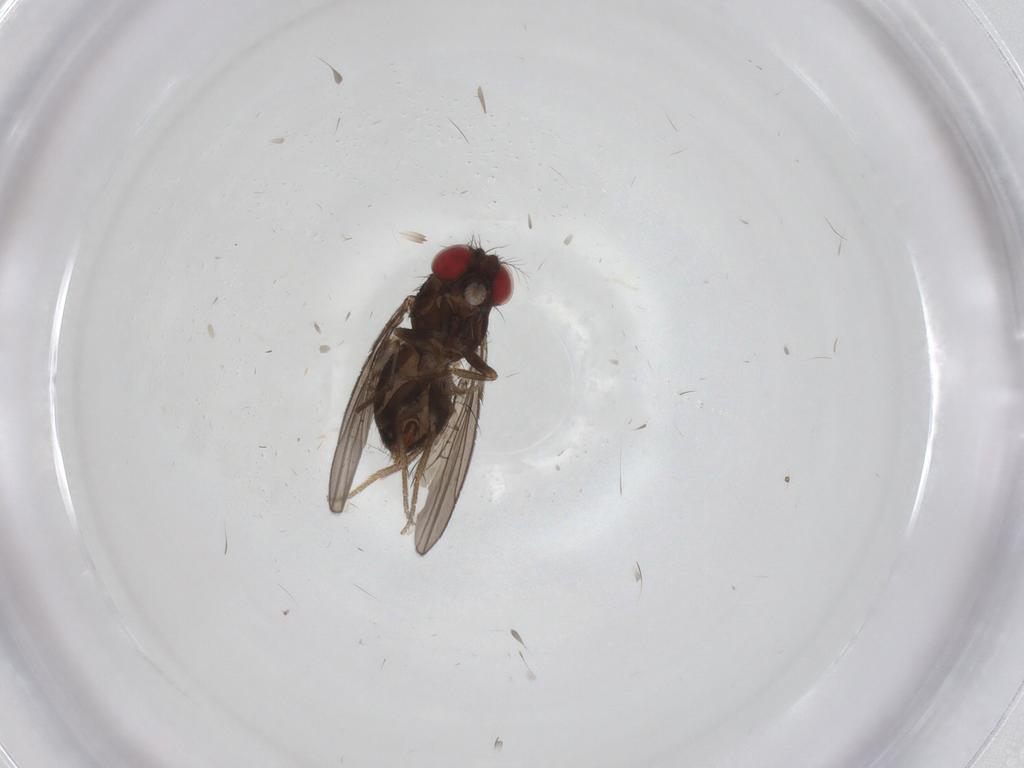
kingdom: Animalia
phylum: Arthropoda
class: Insecta
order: Diptera
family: Drosophilidae
